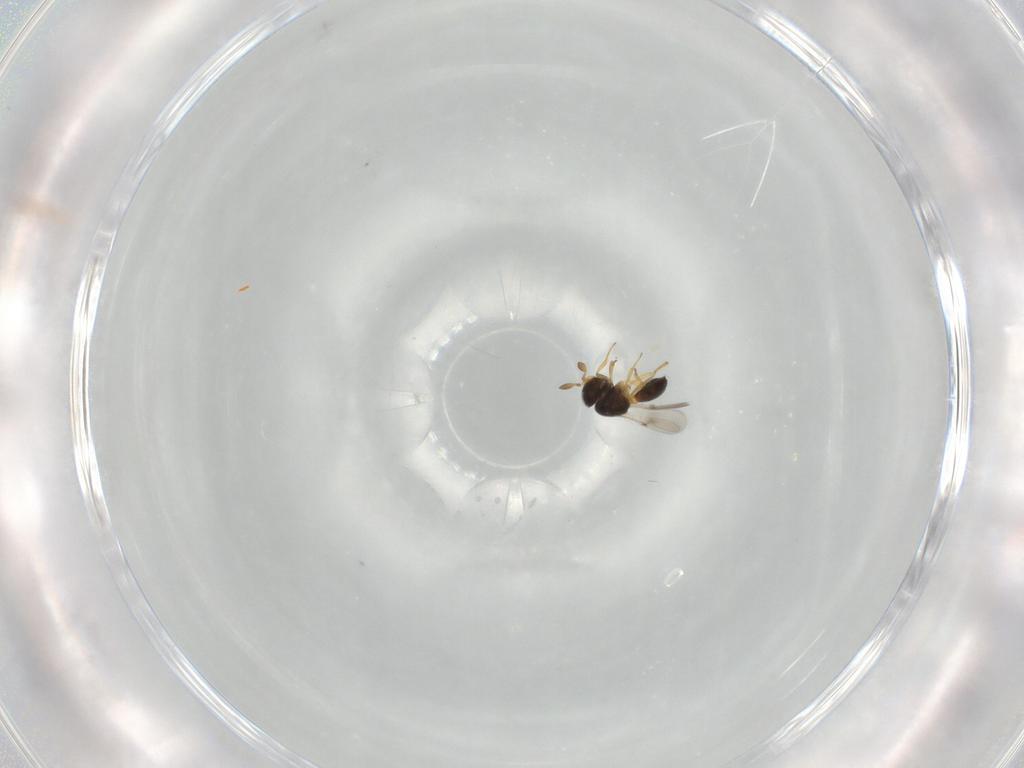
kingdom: Animalia
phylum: Arthropoda
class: Insecta
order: Hymenoptera
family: Scelionidae
